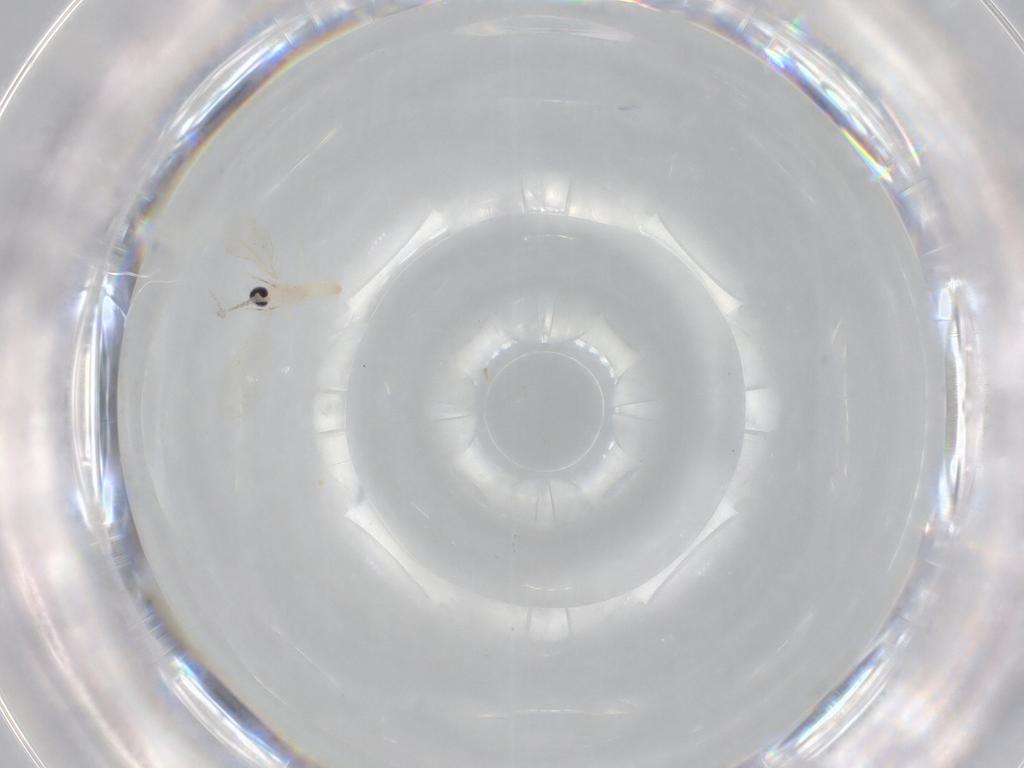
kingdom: Animalia
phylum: Arthropoda
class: Insecta
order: Diptera
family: Cecidomyiidae
